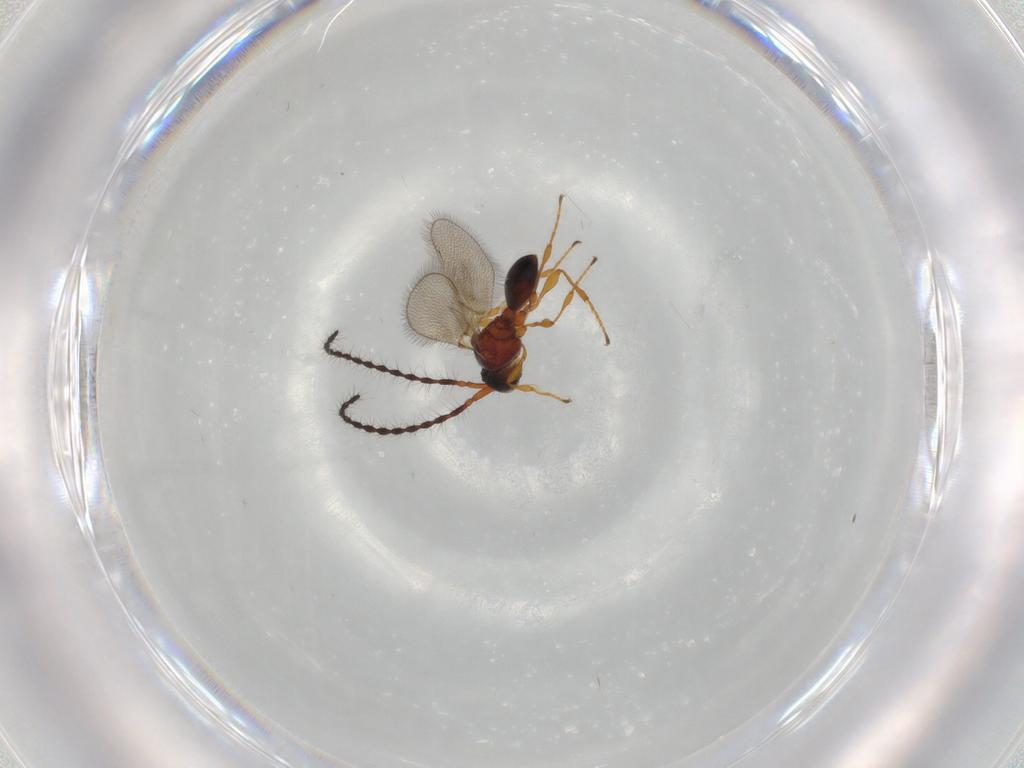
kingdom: Animalia
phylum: Arthropoda
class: Insecta
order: Hymenoptera
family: Diapriidae
